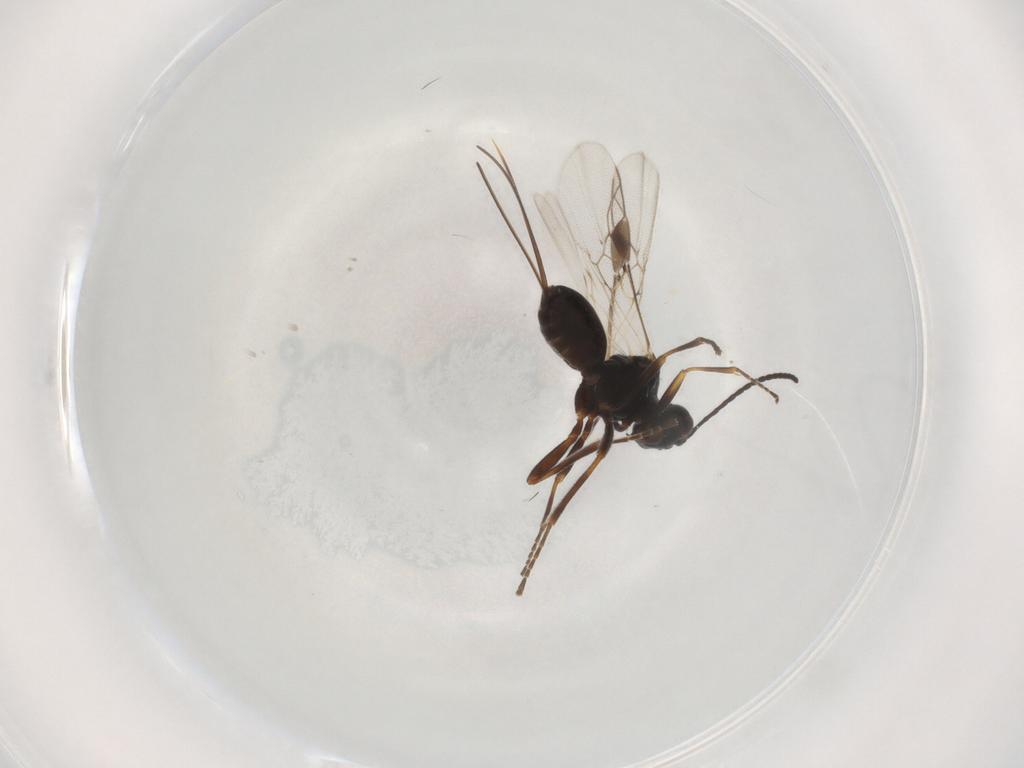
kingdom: Animalia
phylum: Arthropoda
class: Insecta
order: Hymenoptera
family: Braconidae
